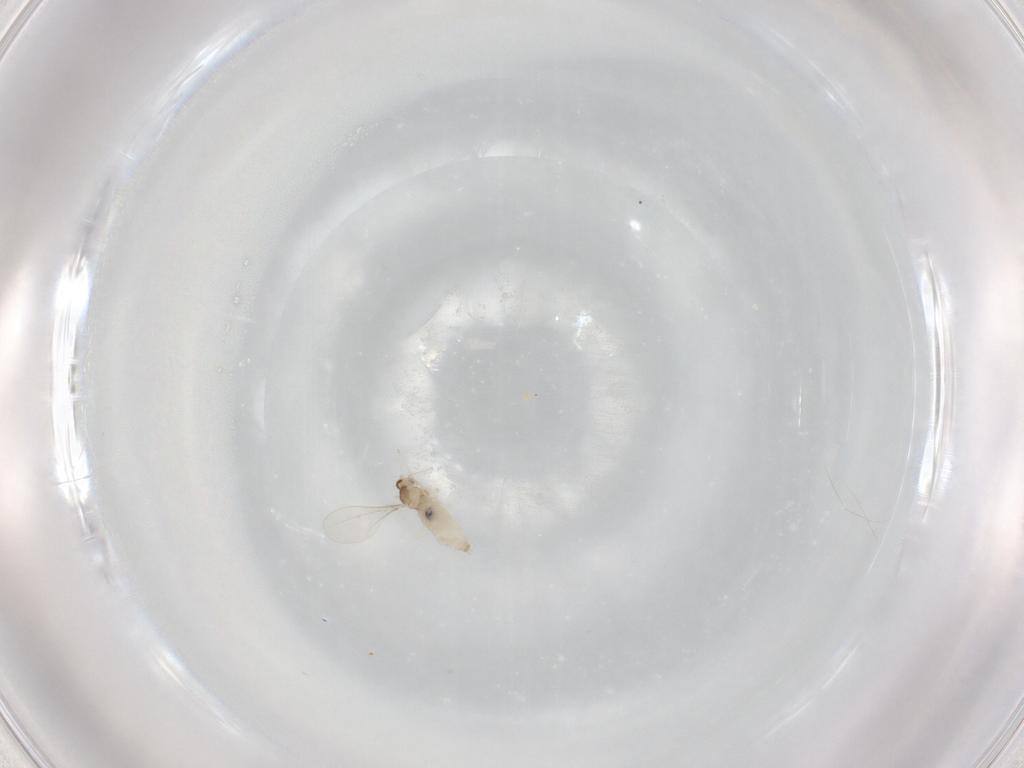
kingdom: Animalia
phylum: Arthropoda
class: Insecta
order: Diptera
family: Cecidomyiidae
